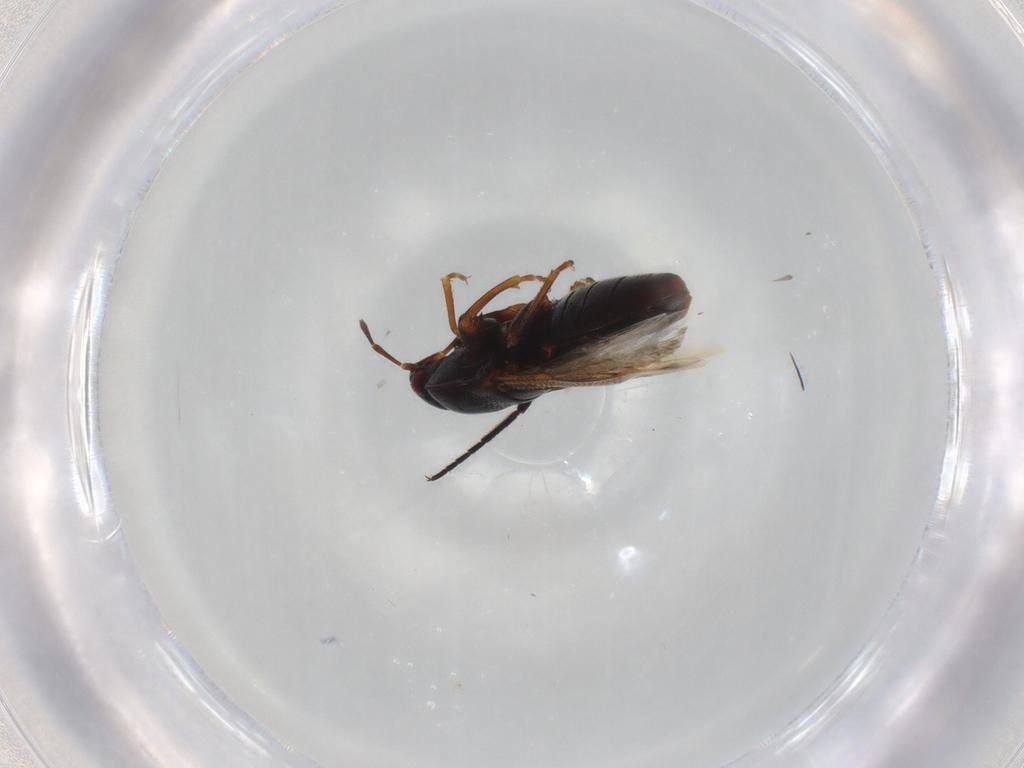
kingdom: Animalia
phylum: Arthropoda
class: Insecta
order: Hemiptera
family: Rhyparochromidae
